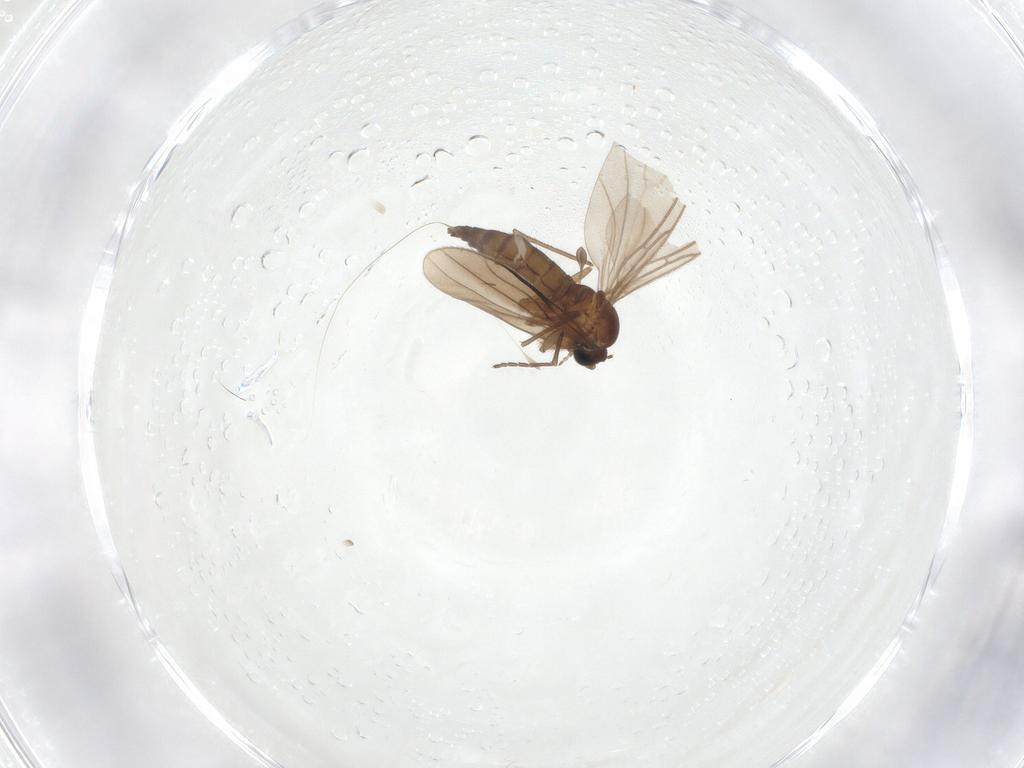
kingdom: Animalia
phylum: Arthropoda
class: Insecta
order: Diptera
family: Sciaridae
